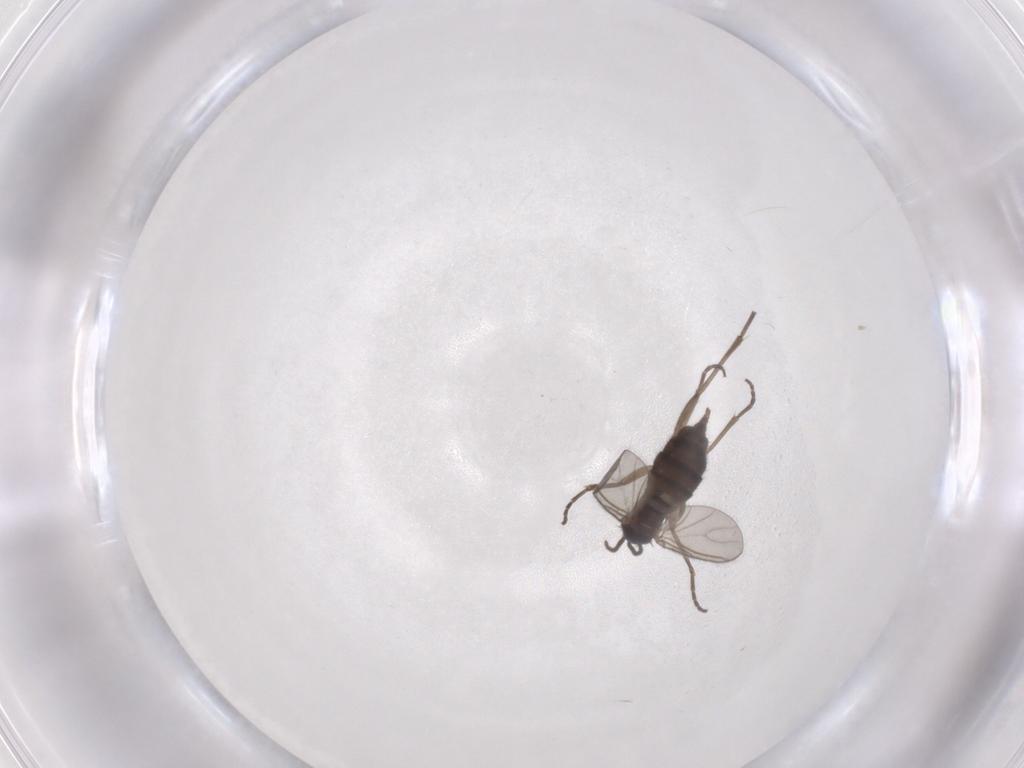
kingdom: Animalia
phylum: Arthropoda
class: Insecta
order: Diptera
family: Sciaridae
